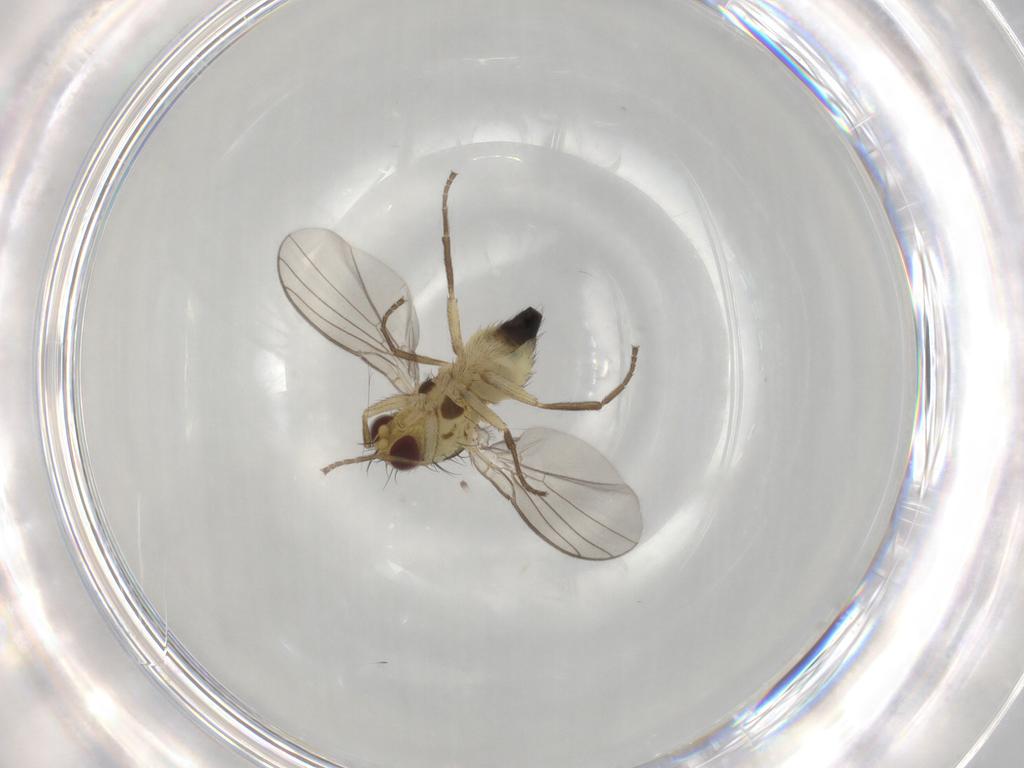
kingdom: Animalia
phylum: Arthropoda
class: Insecta
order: Diptera
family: Agromyzidae
